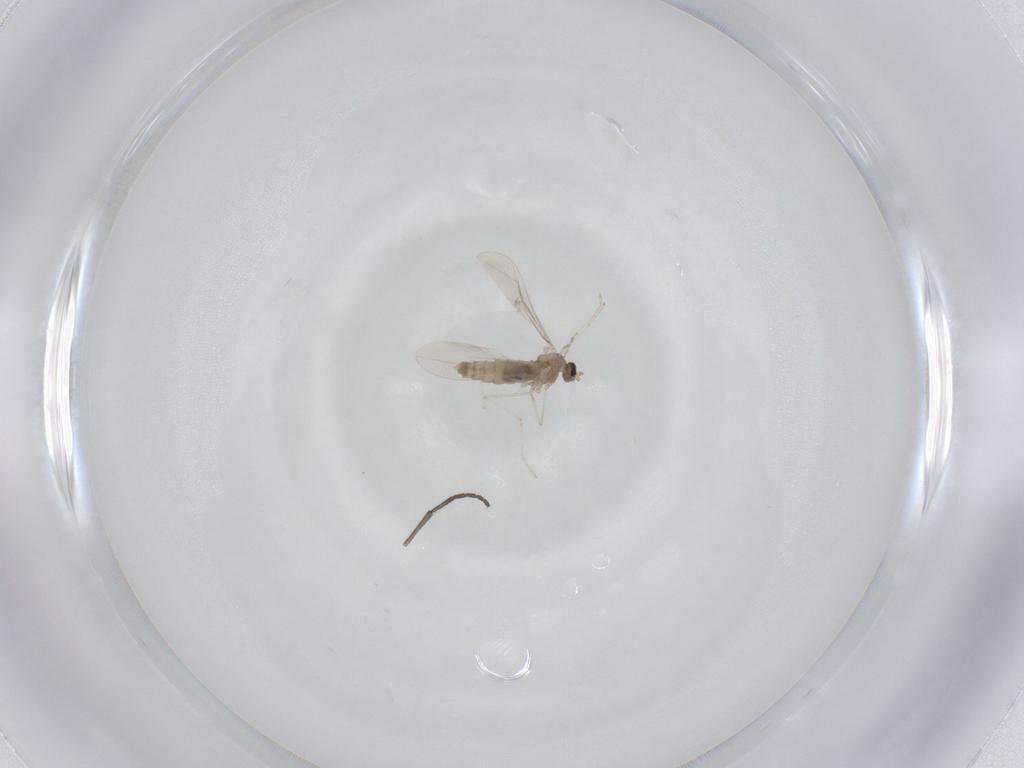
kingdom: Animalia
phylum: Arthropoda
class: Insecta
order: Diptera
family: Cecidomyiidae
